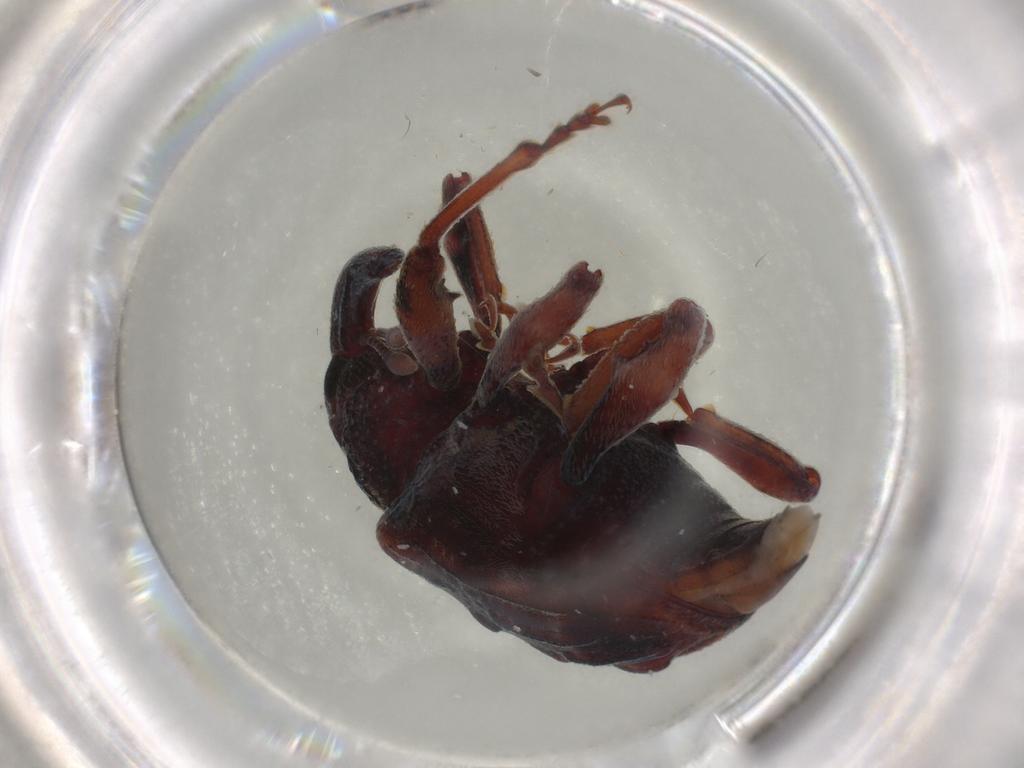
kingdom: Animalia
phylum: Arthropoda
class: Insecta
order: Coleoptera
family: Curculionidae
